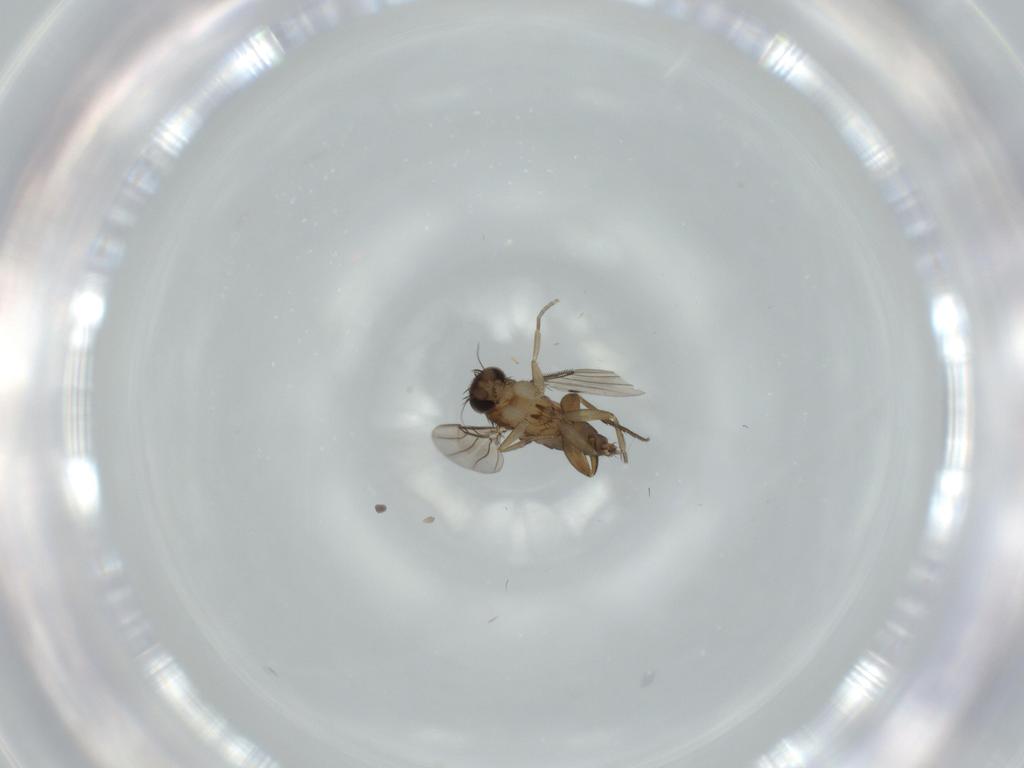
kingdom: Animalia
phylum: Arthropoda
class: Insecta
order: Diptera
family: Phoridae
